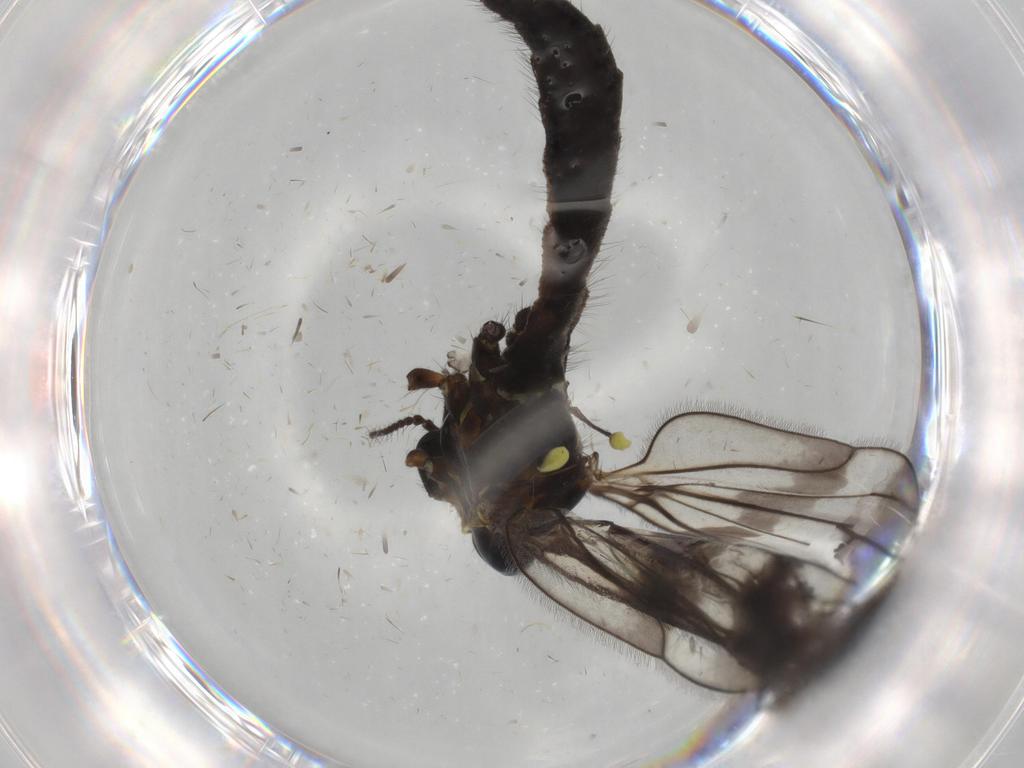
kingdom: Animalia
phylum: Arthropoda
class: Insecta
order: Diptera
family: Limoniidae
